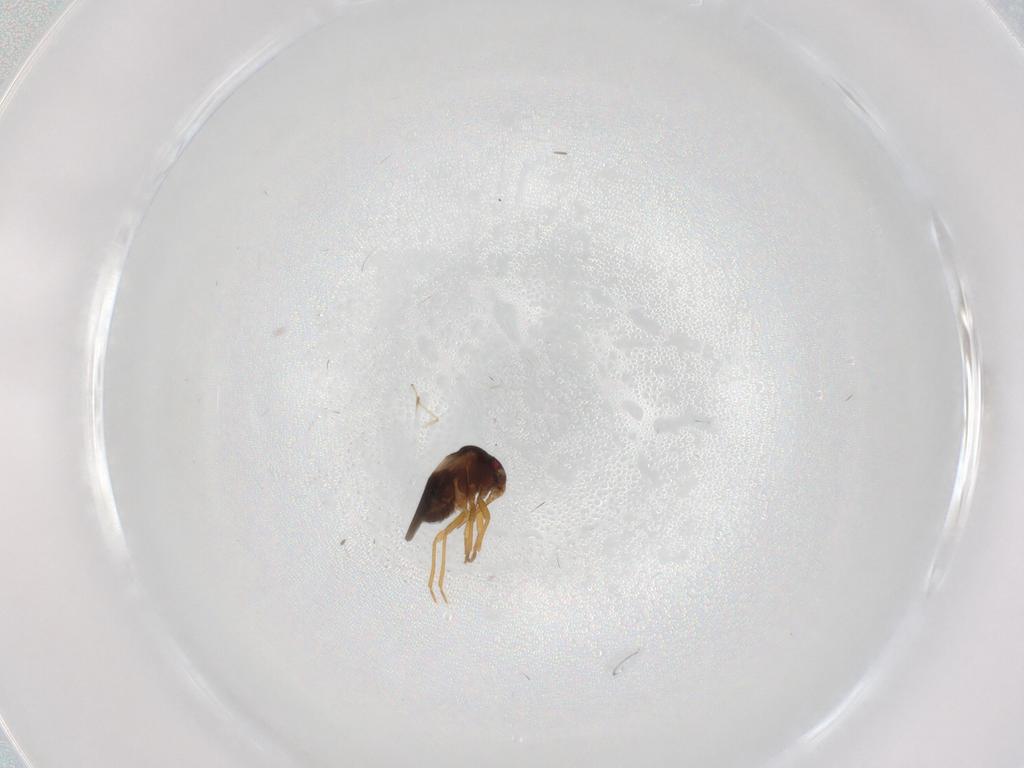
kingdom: Animalia
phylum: Arthropoda
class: Insecta
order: Hemiptera
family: Schizopteridae
